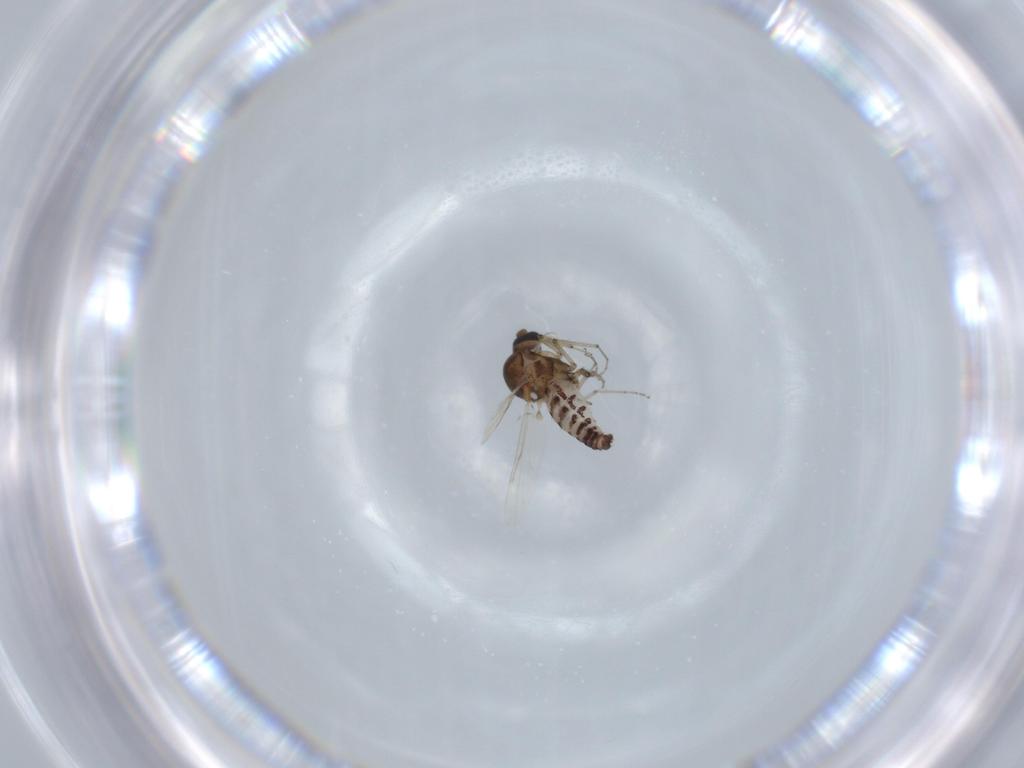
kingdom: Animalia
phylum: Arthropoda
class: Insecta
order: Diptera
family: Ceratopogonidae
